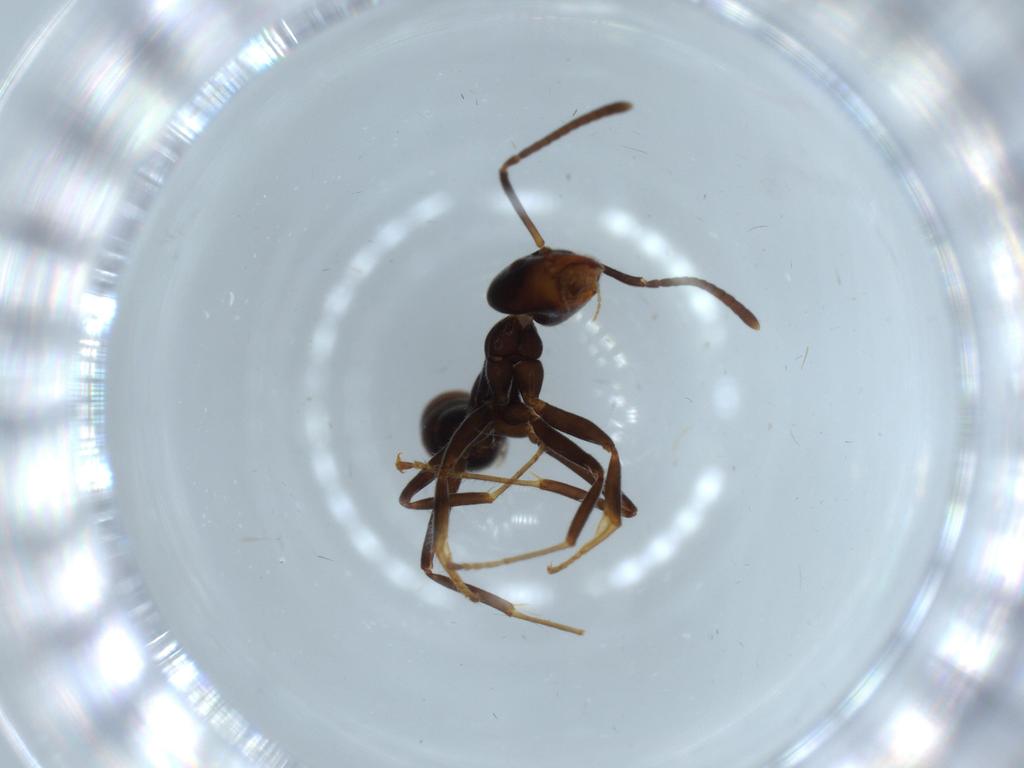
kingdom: Animalia
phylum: Arthropoda
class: Insecta
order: Hymenoptera
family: Formicidae
